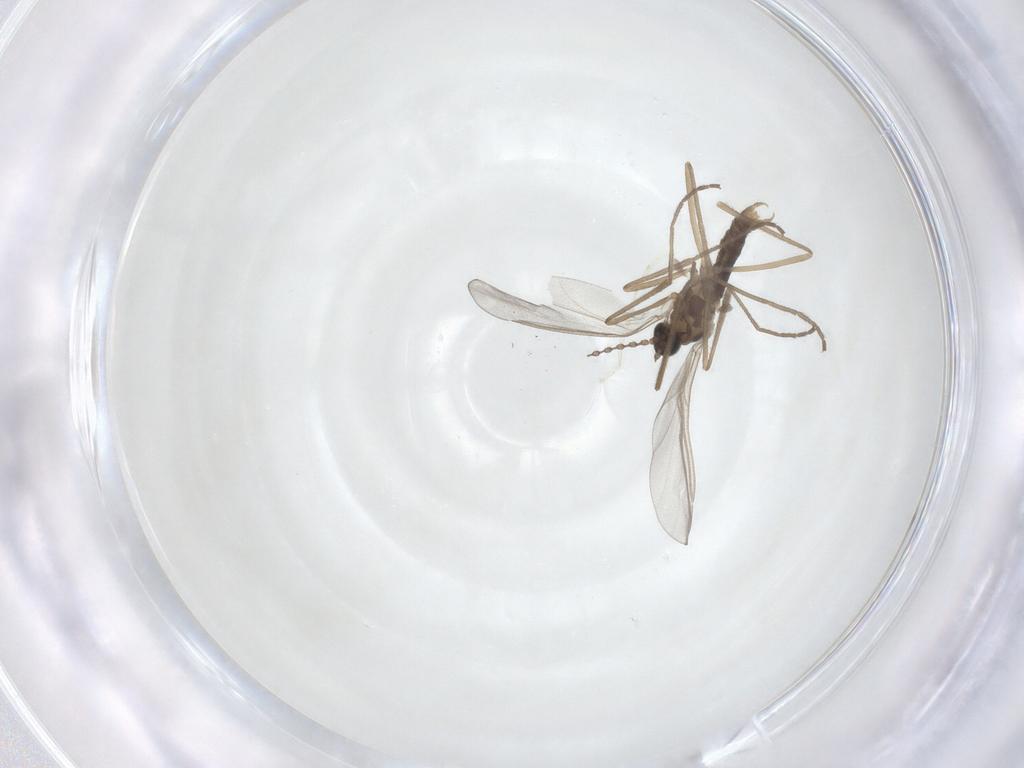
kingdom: Animalia
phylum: Arthropoda
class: Insecta
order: Diptera
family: Cecidomyiidae
